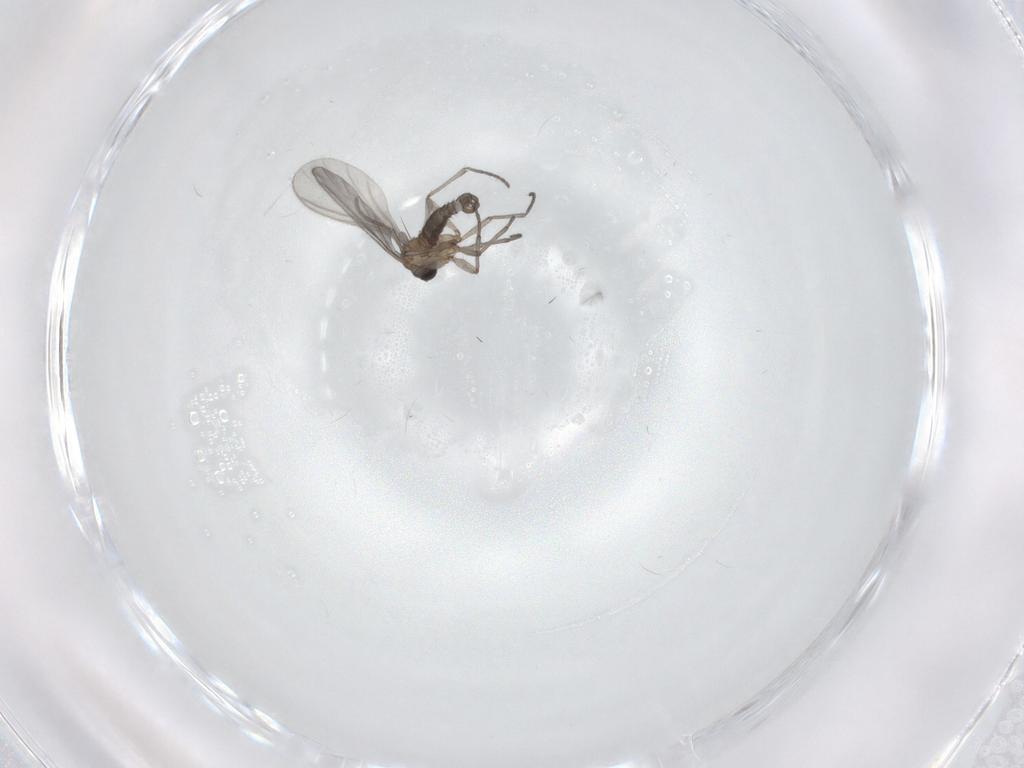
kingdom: Animalia
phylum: Arthropoda
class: Insecta
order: Diptera
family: Sciaridae
